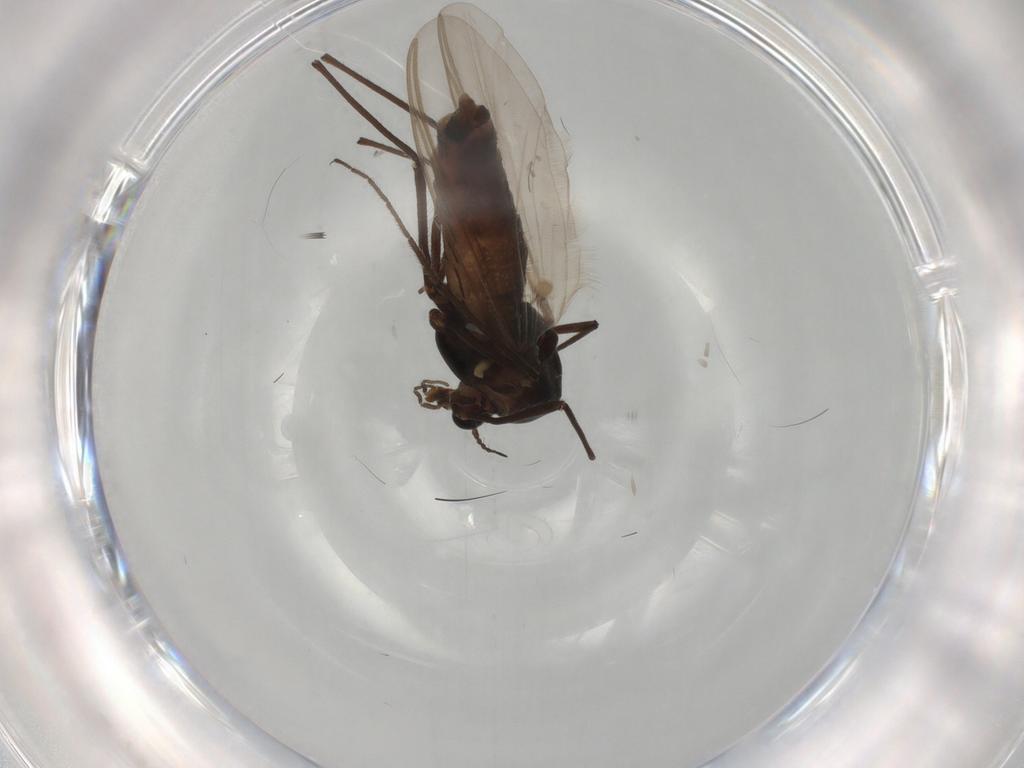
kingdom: Animalia
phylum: Arthropoda
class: Insecta
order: Diptera
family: Chironomidae
